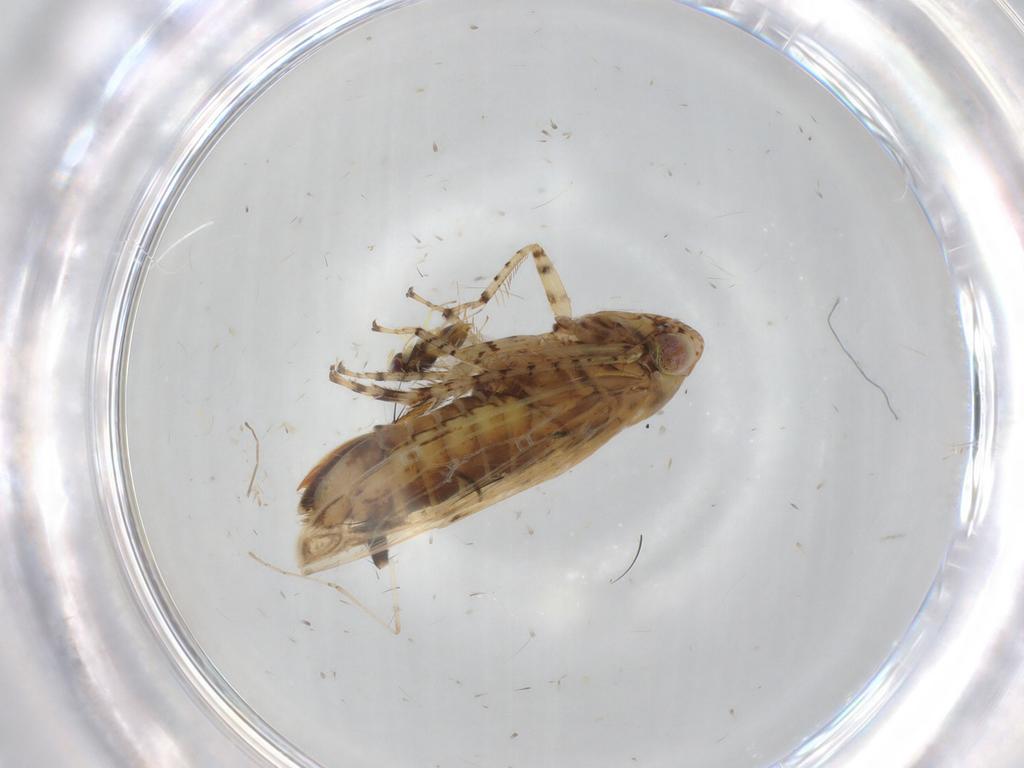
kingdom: Animalia
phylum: Arthropoda
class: Insecta
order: Hemiptera
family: Cicadellidae
